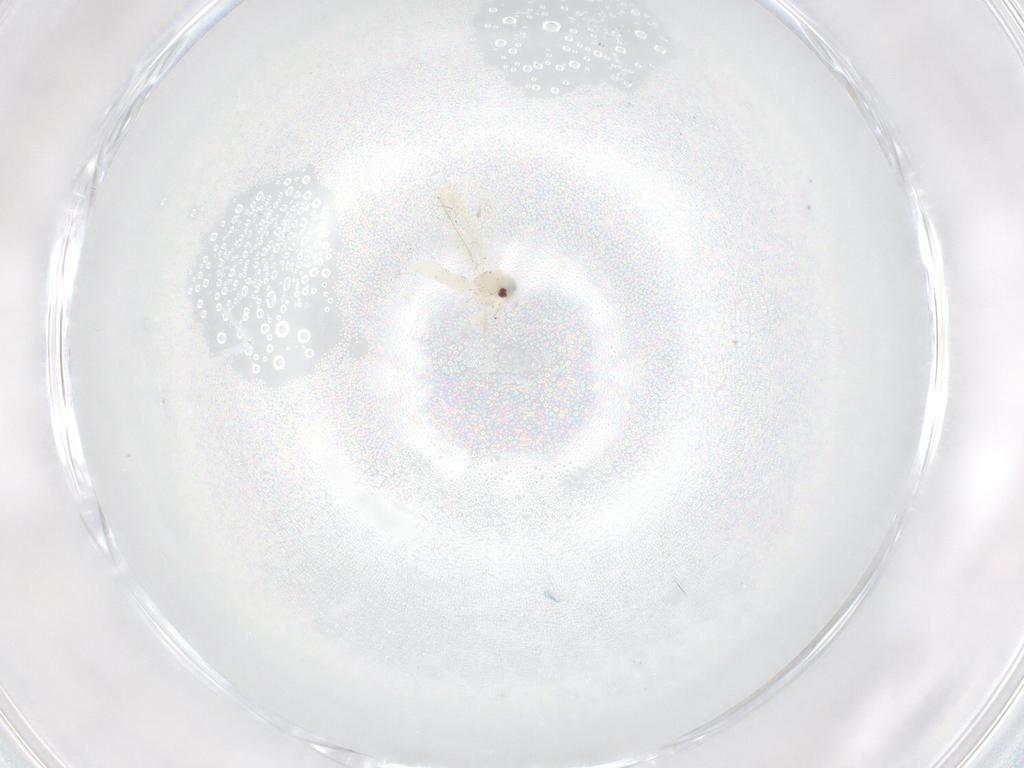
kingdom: Animalia
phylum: Arthropoda
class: Insecta
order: Hemiptera
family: Aleyrodidae
